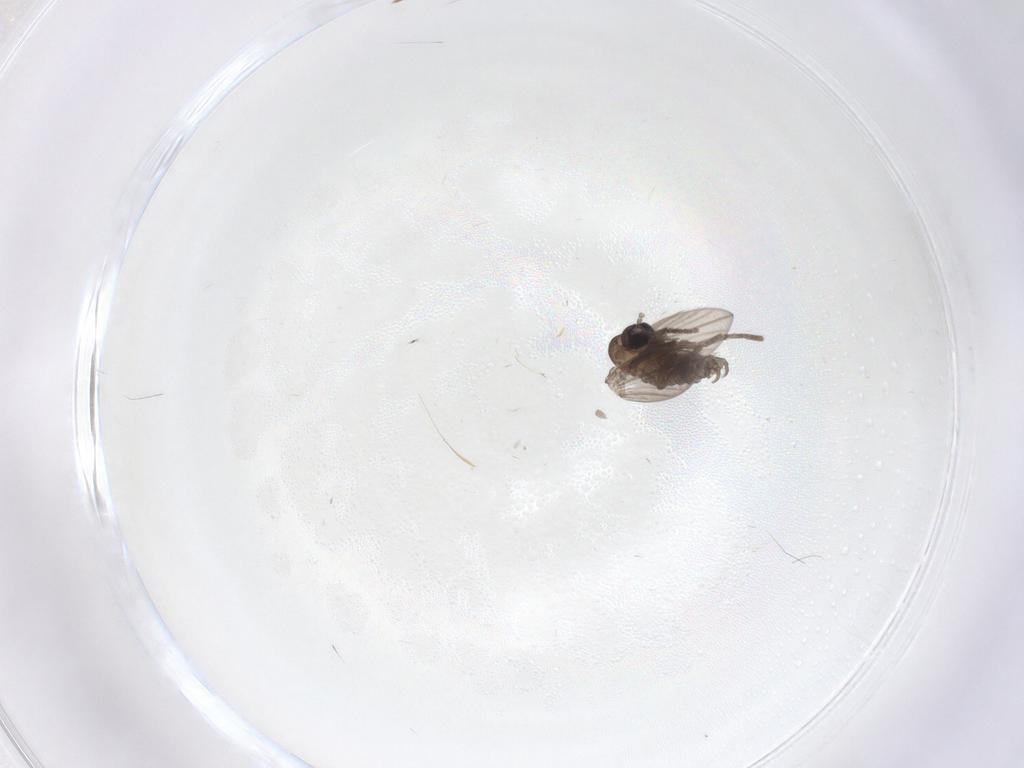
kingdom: Animalia
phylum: Arthropoda
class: Insecta
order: Diptera
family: Psychodidae
